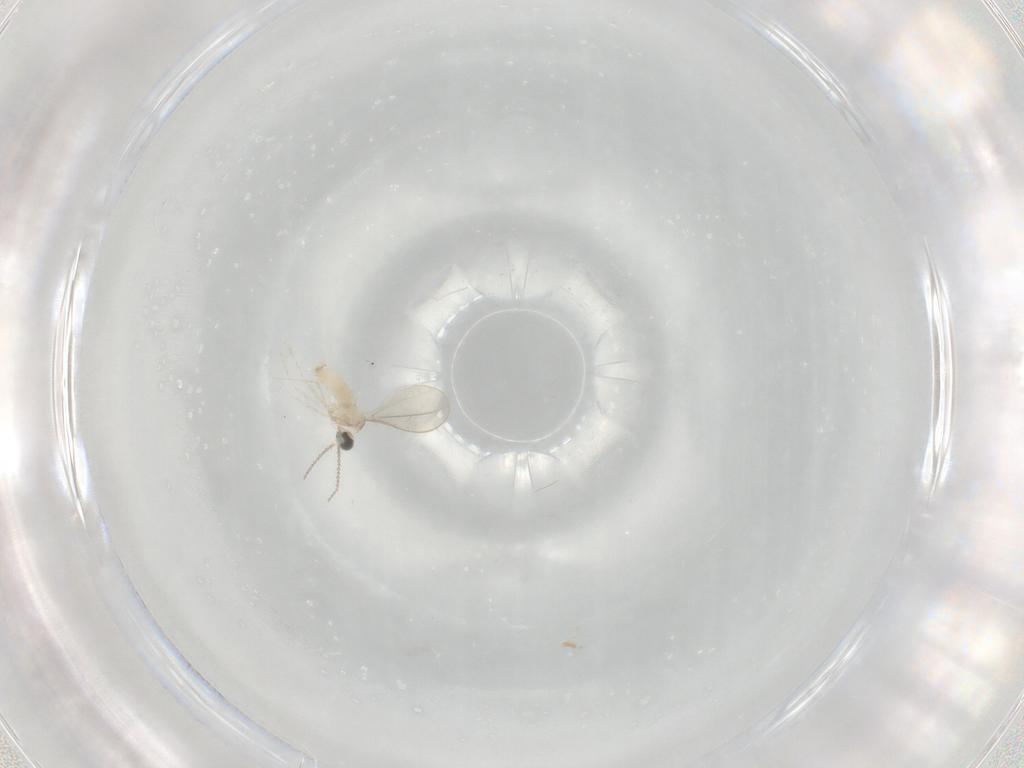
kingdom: Animalia
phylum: Arthropoda
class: Insecta
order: Diptera
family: Cecidomyiidae
